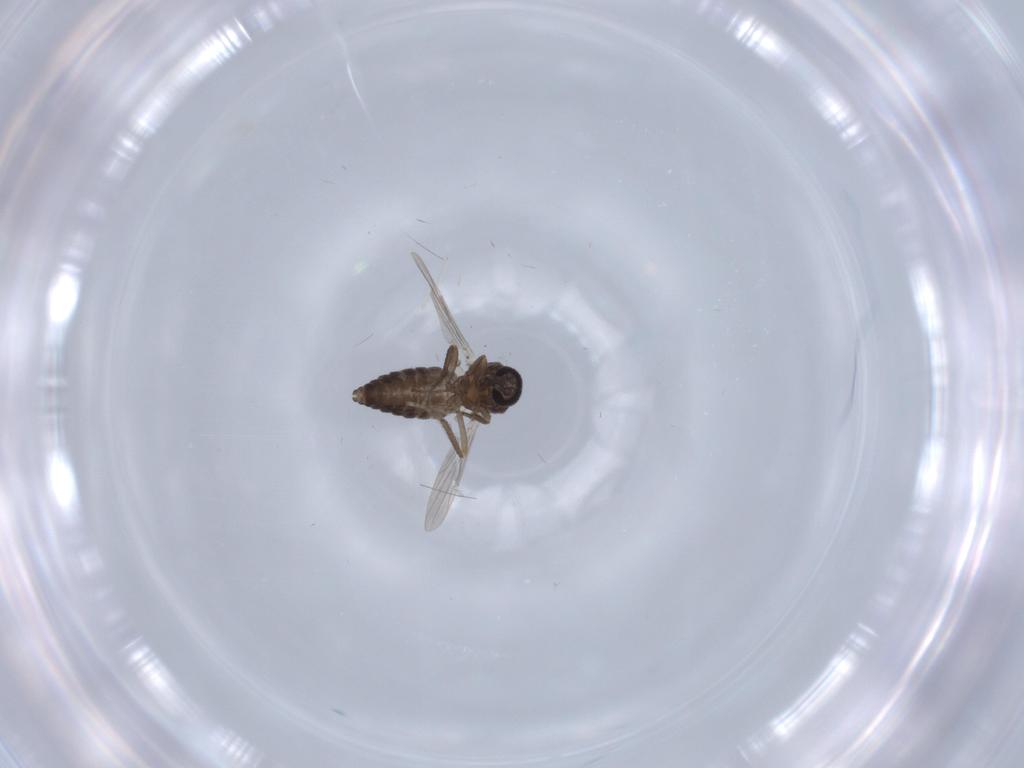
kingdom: Animalia
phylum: Arthropoda
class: Insecta
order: Diptera
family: Ceratopogonidae
